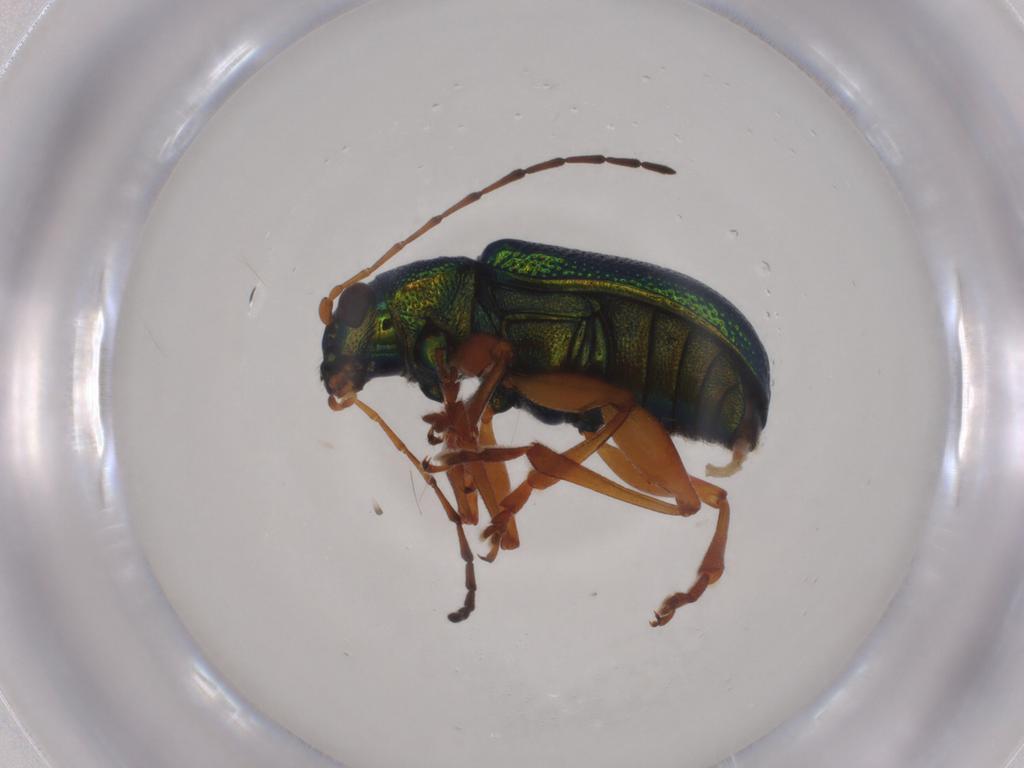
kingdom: Animalia
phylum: Arthropoda
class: Insecta
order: Coleoptera
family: Chrysomelidae
